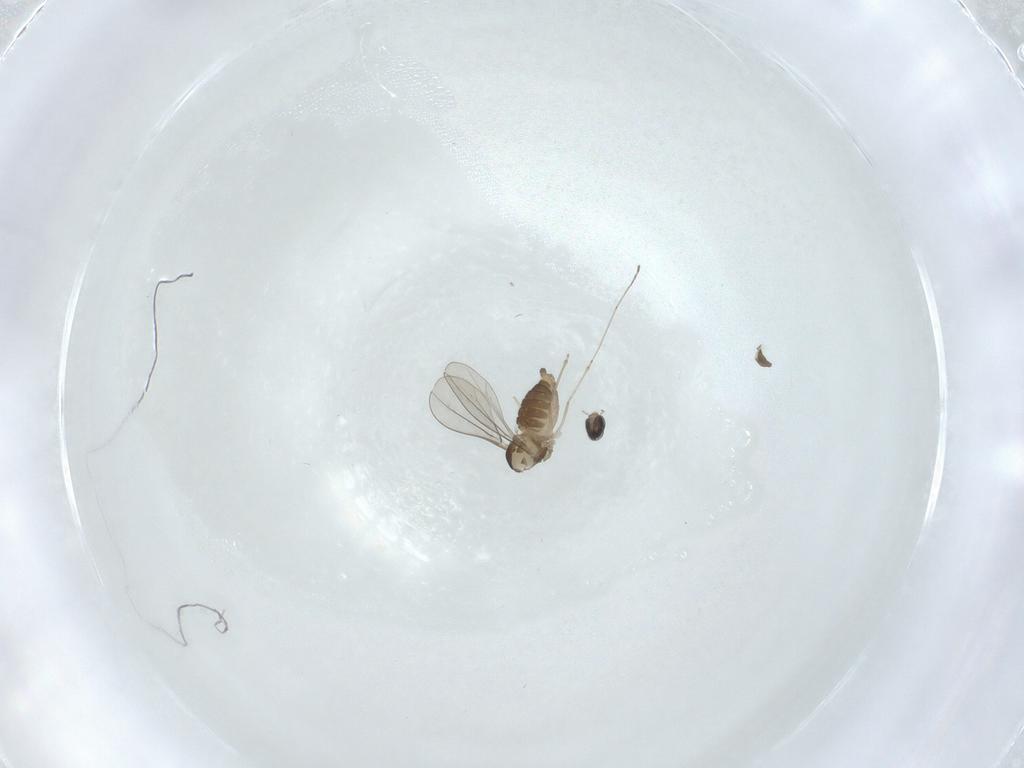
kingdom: Animalia
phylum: Arthropoda
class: Insecta
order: Diptera
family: Cecidomyiidae
